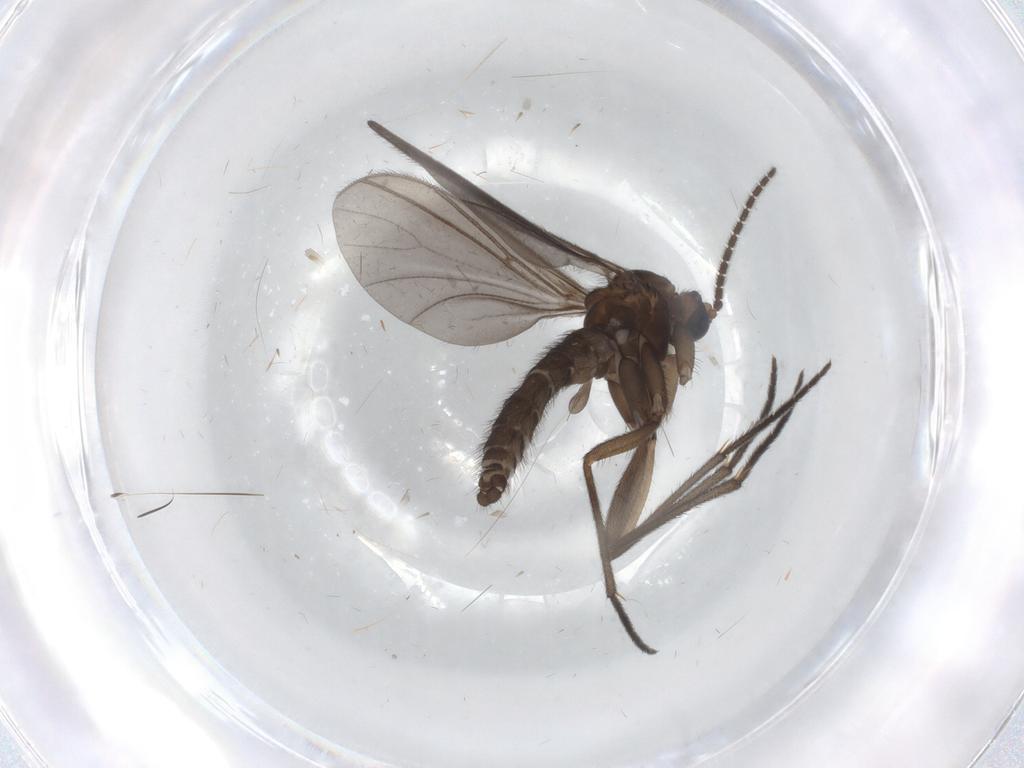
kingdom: Animalia
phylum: Arthropoda
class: Insecta
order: Diptera
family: Sciaridae
